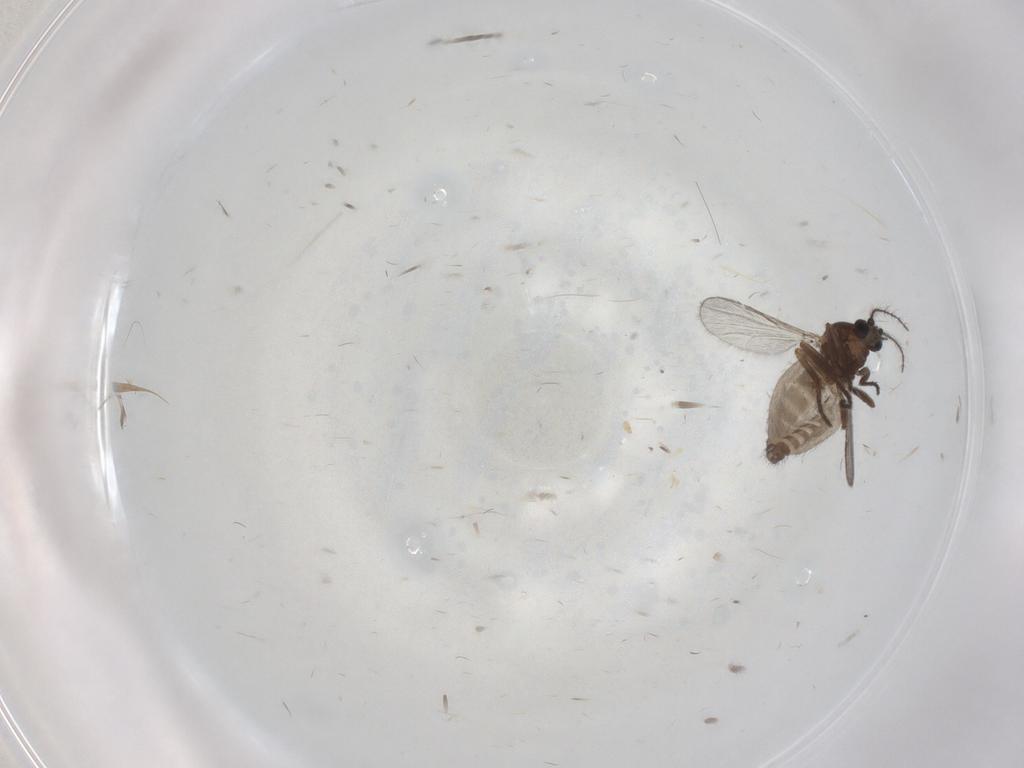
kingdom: Animalia
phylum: Arthropoda
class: Insecta
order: Diptera
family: Phoridae
